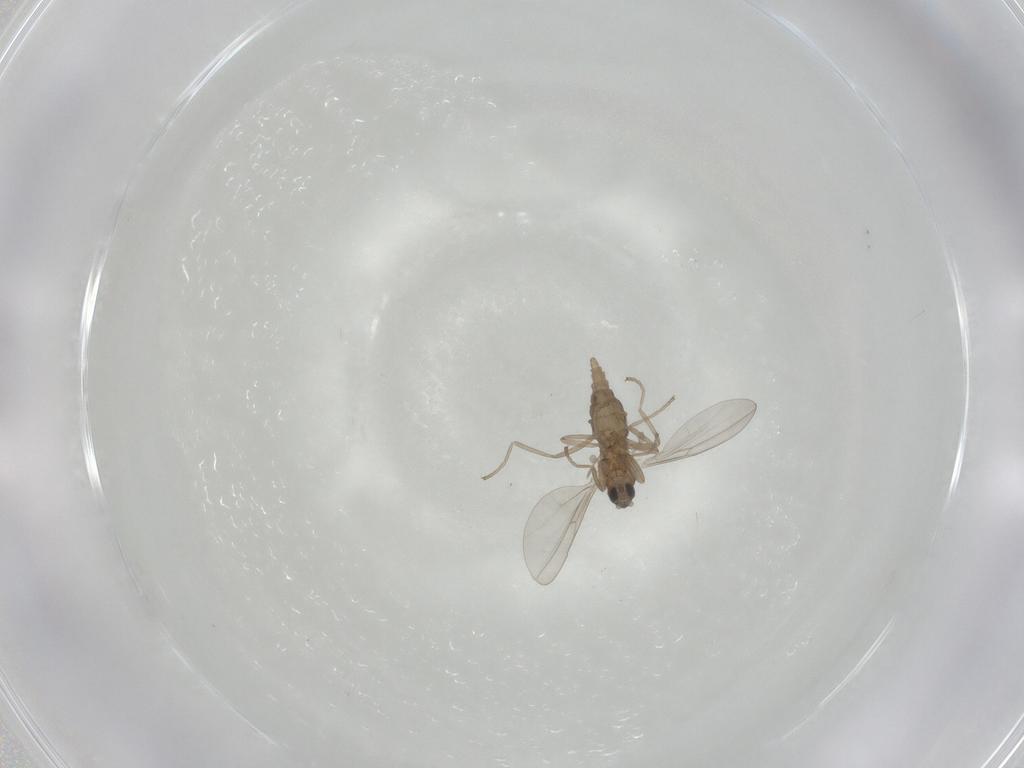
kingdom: Animalia
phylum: Arthropoda
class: Insecta
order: Diptera
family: Cecidomyiidae
